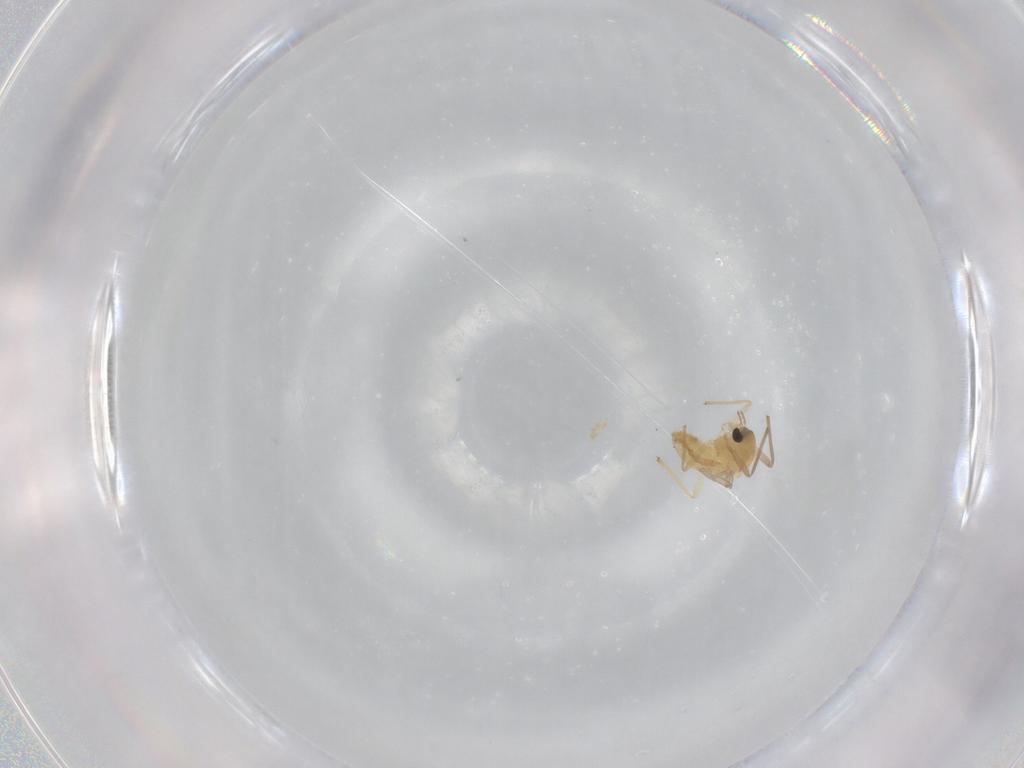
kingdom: Animalia
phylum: Arthropoda
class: Insecta
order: Diptera
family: Chironomidae
